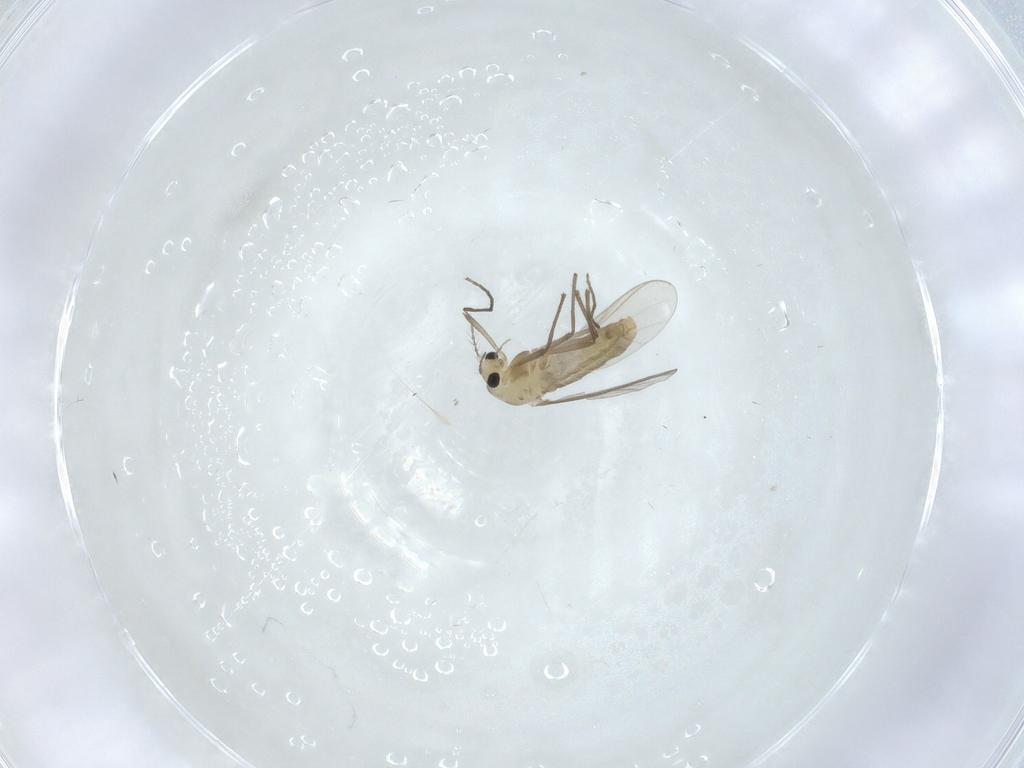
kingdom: Animalia
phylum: Arthropoda
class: Insecta
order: Diptera
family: Chironomidae
